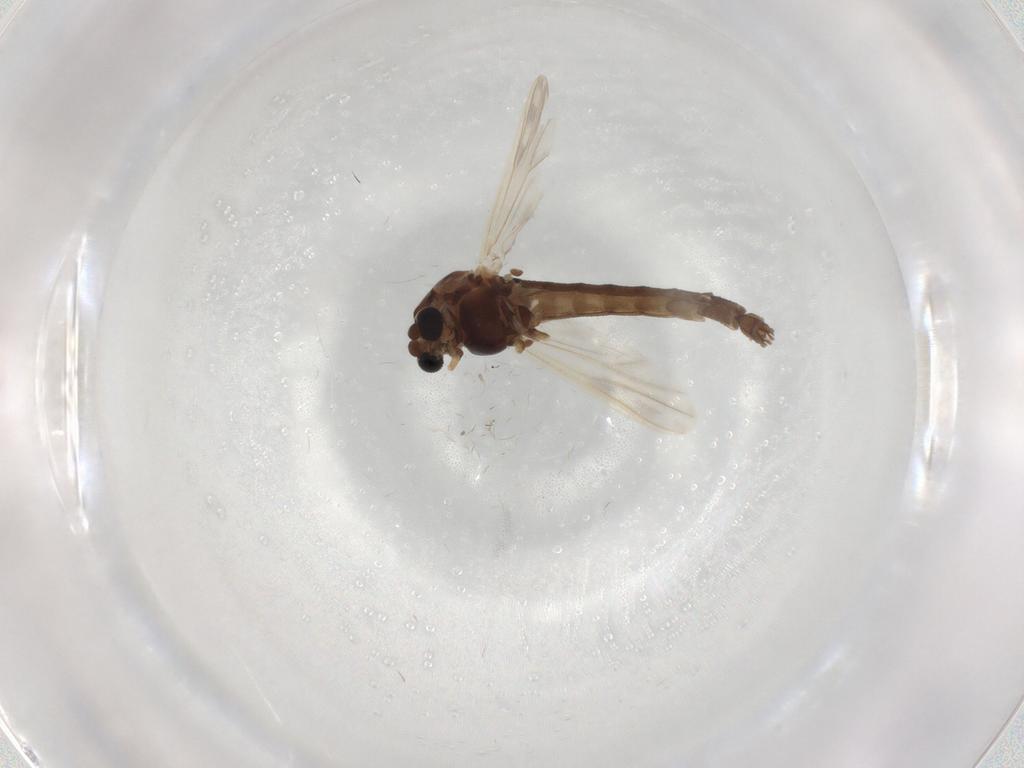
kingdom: Animalia
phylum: Arthropoda
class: Insecta
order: Diptera
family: Chironomidae
